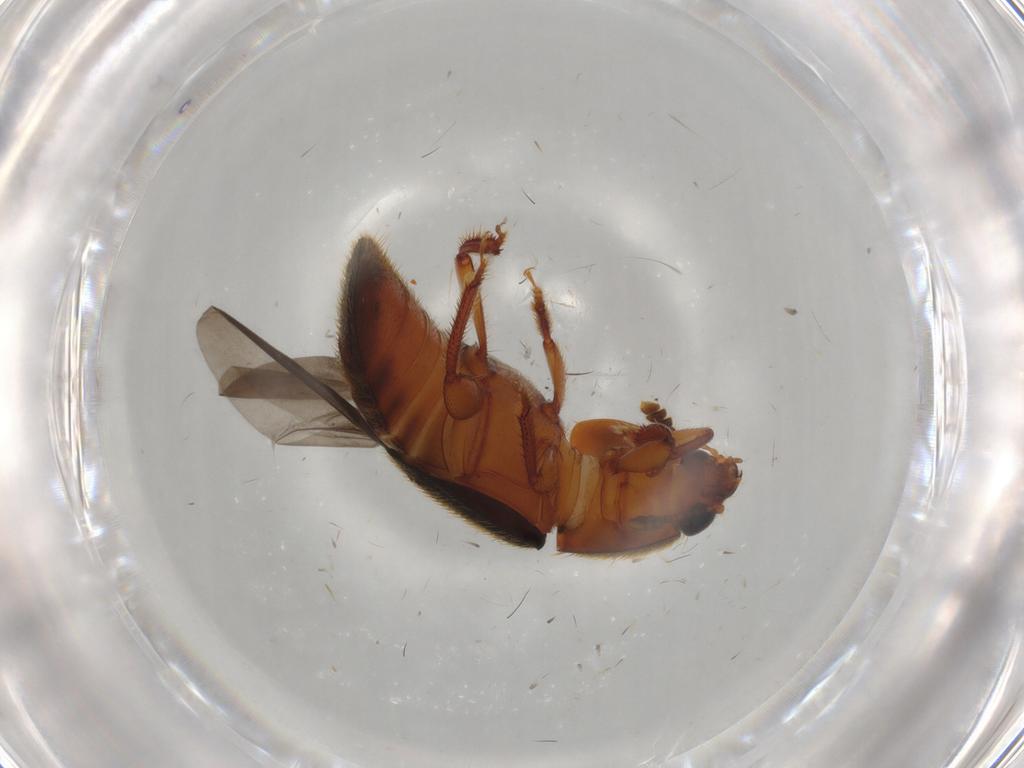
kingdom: Animalia
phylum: Arthropoda
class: Insecta
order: Coleoptera
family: Nitidulidae
